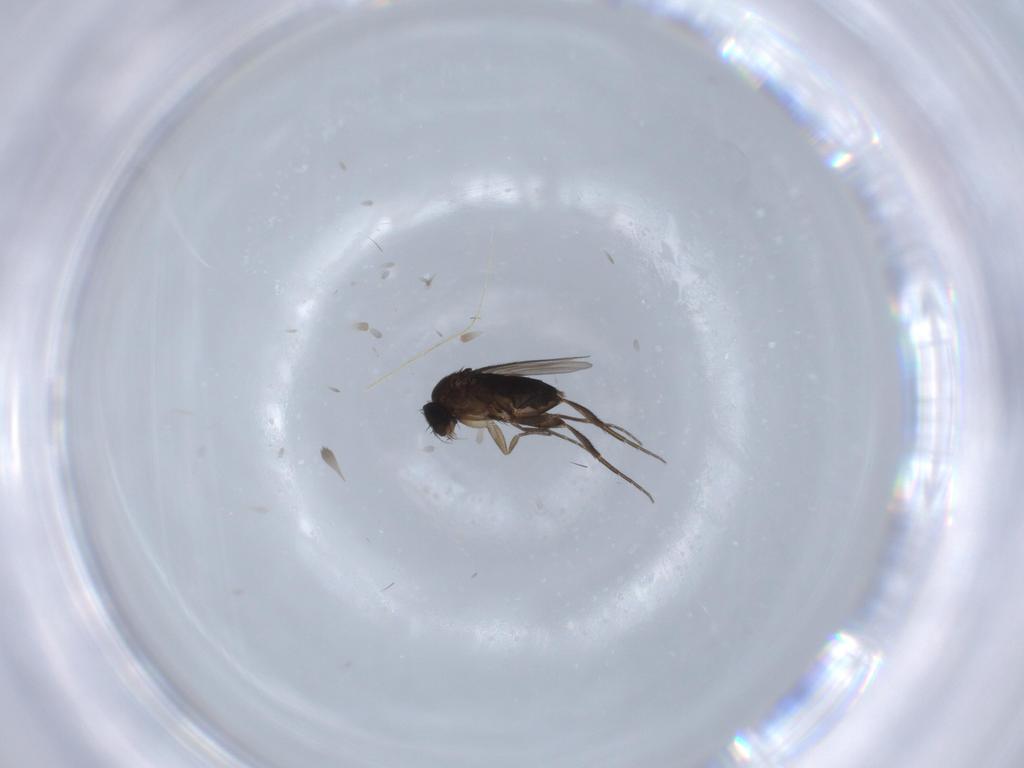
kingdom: Animalia
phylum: Arthropoda
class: Insecta
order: Diptera
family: Phoridae
